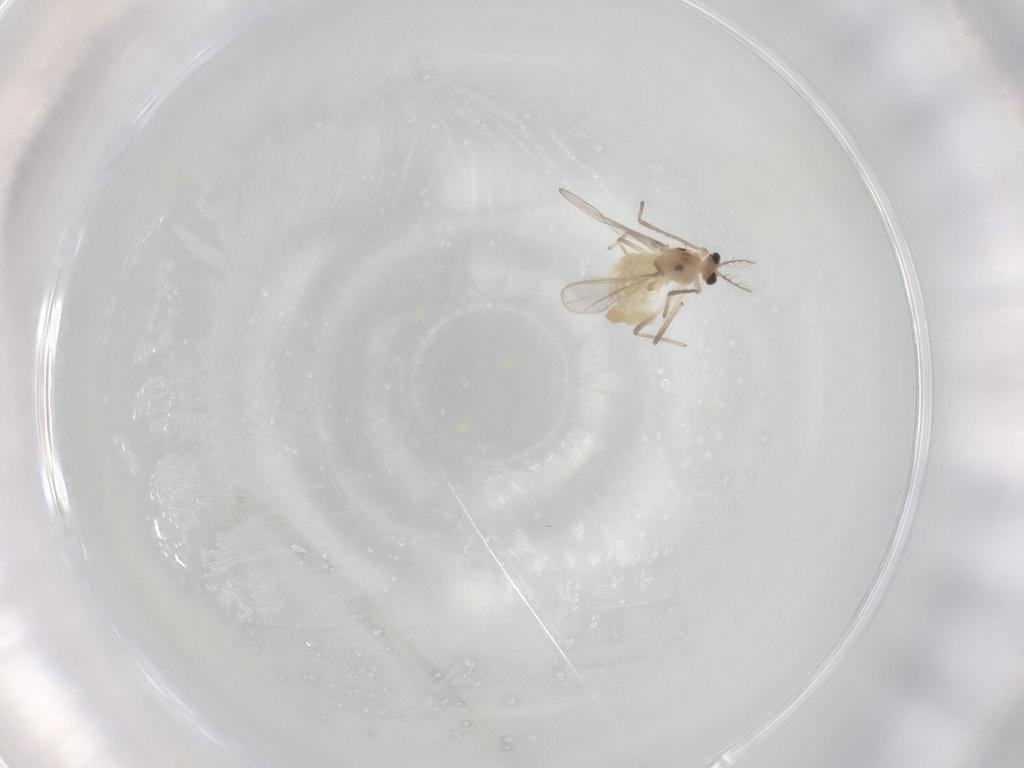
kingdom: Animalia
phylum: Arthropoda
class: Insecta
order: Diptera
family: Chironomidae
